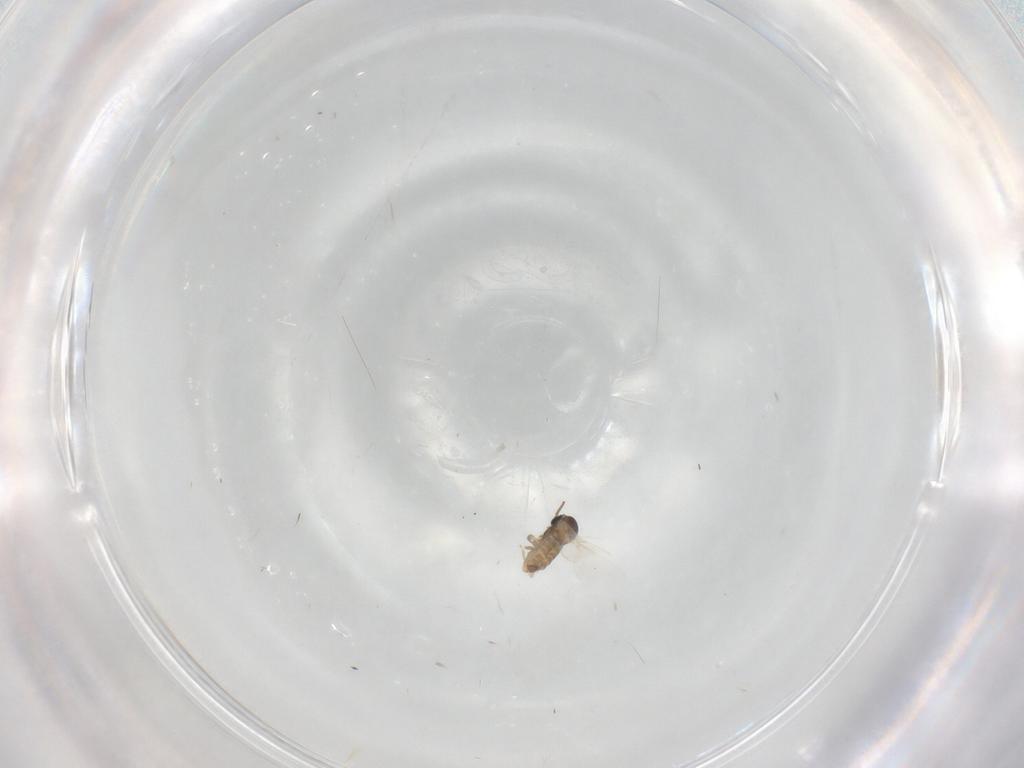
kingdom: Animalia
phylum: Arthropoda
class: Insecta
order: Diptera
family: Cecidomyiidae
